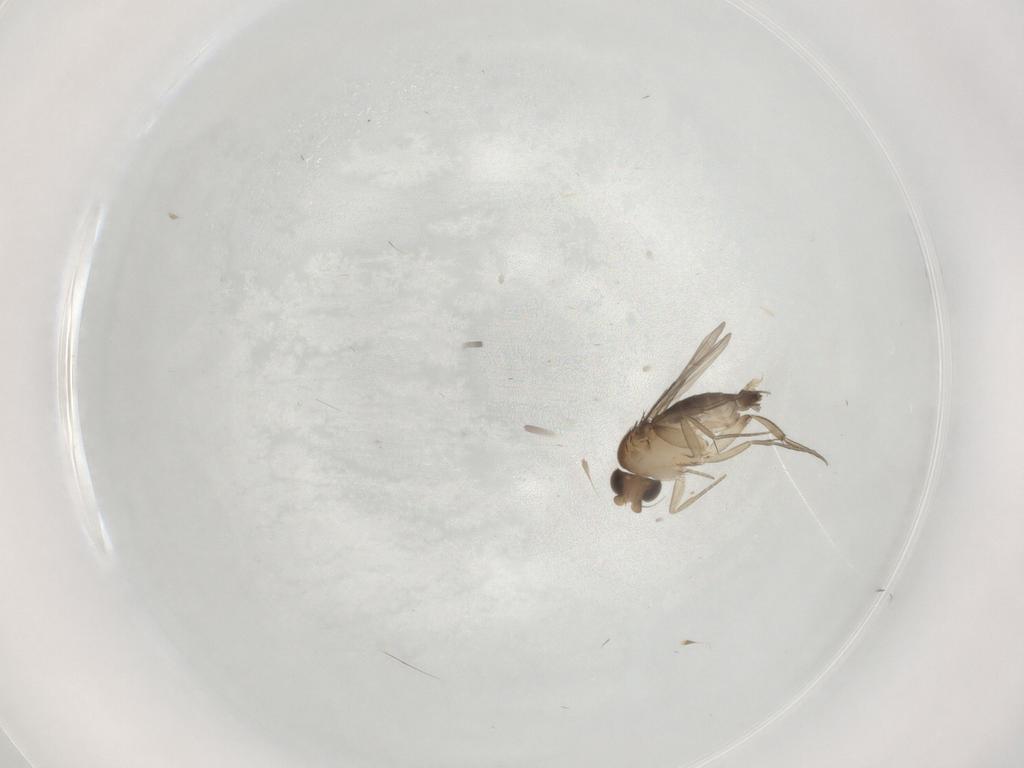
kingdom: Animalia
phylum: Arthropoda
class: Insecta
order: Diptera
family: Phoridae
